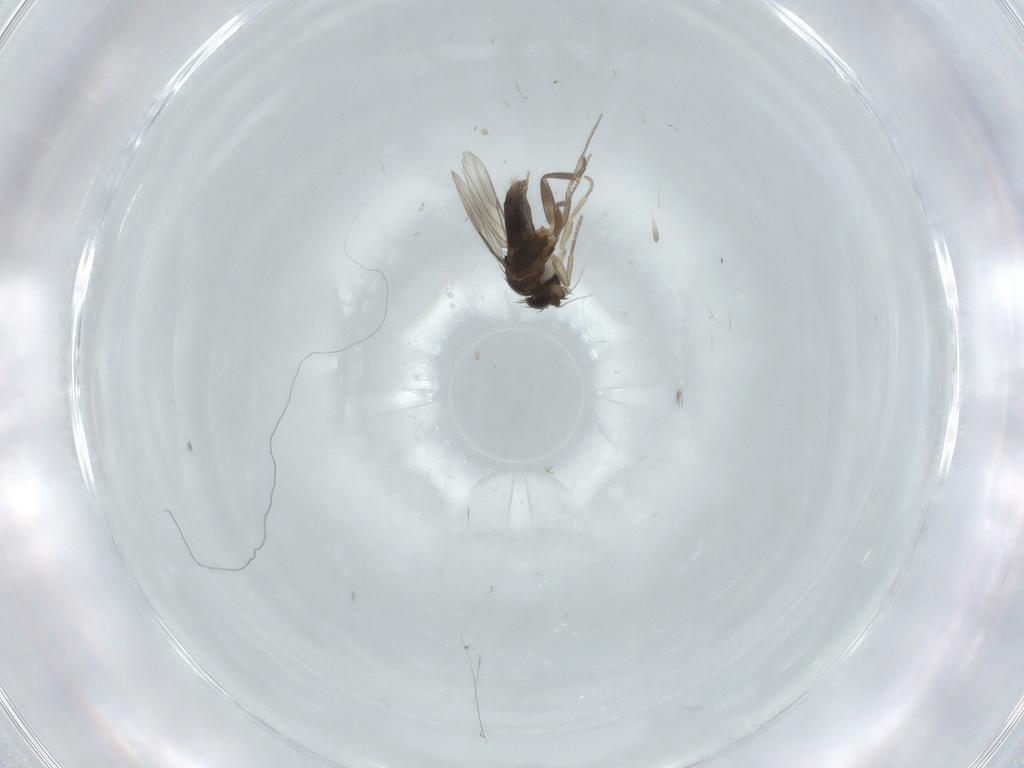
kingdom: Animalia
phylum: Arthropoda
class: Insecta
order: Diptera
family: Phoridae
